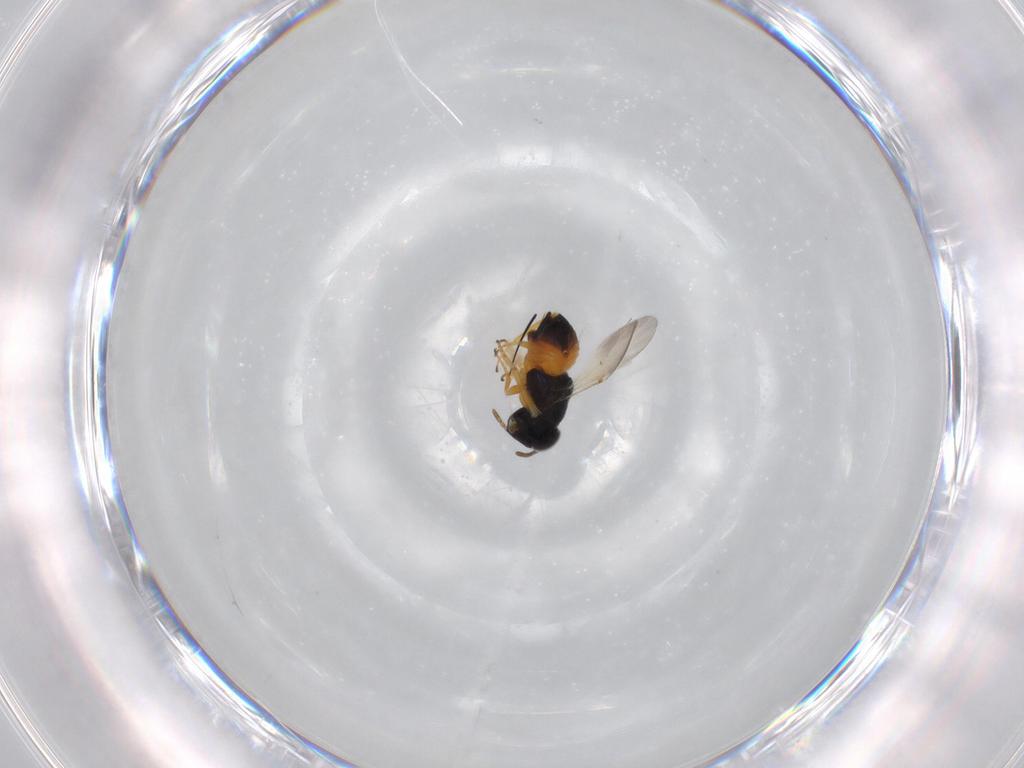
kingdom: Animalia
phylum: Arthropoda
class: Insecta
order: Hymenoptera
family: Encyrtidae
